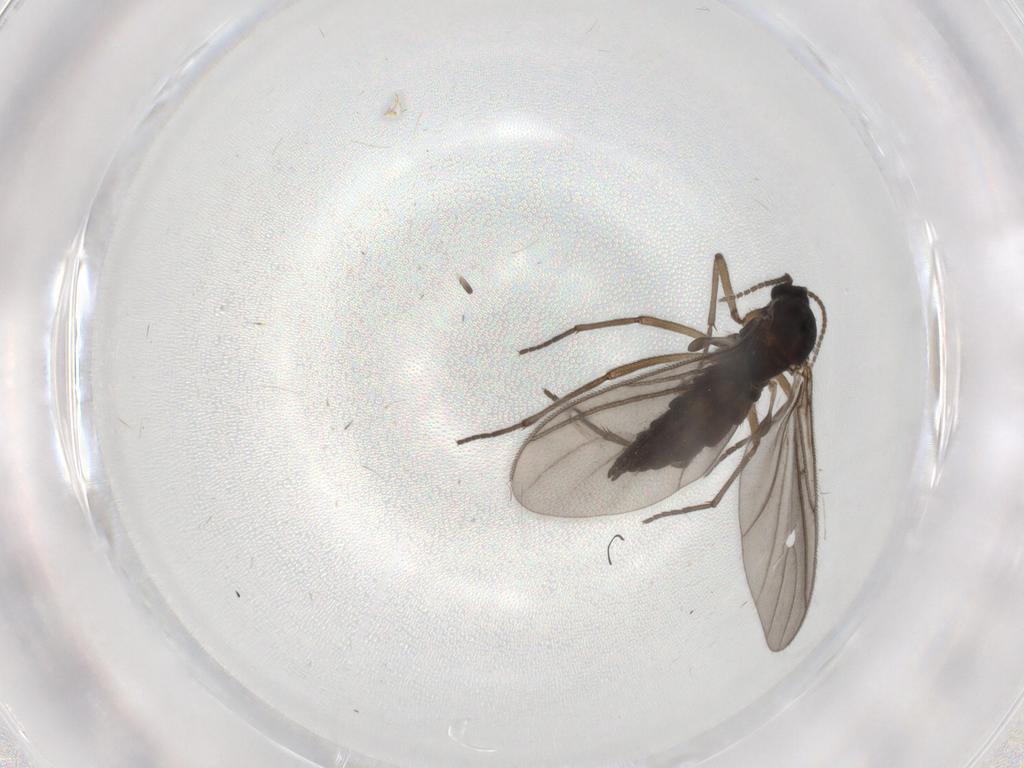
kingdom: Animalia
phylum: Arthropoda
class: Insecta
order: Diptera
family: Sciaridae
